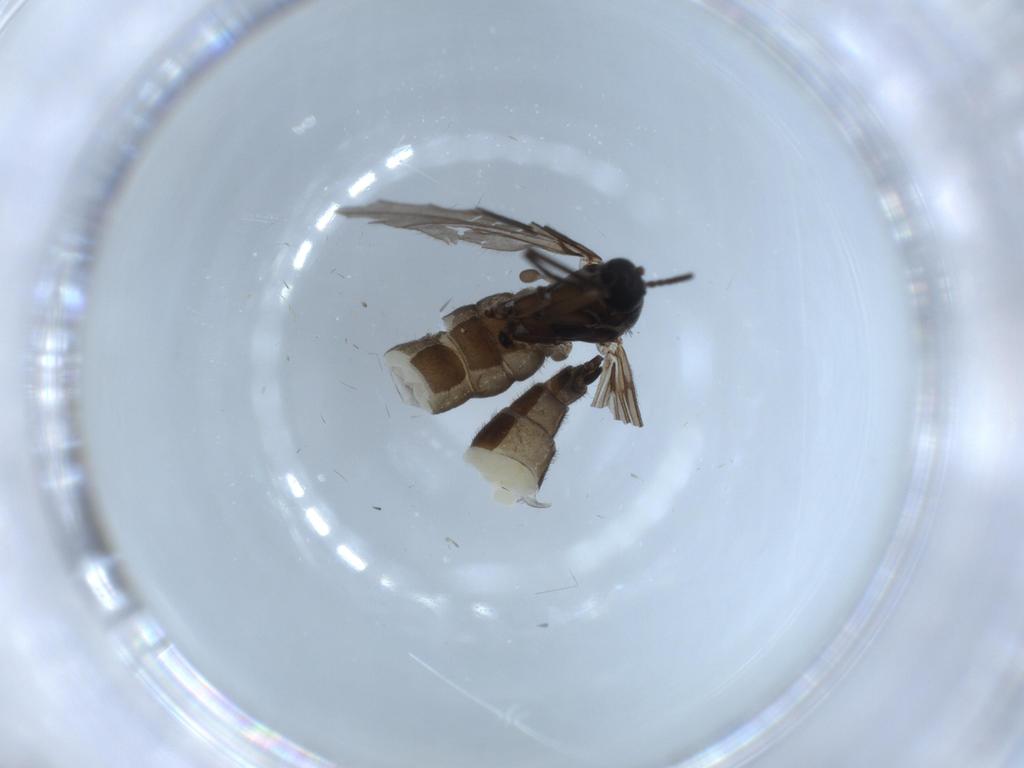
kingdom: Animalia
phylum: Arthropoda
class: Insecta
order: Diptera
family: Sciaridae
